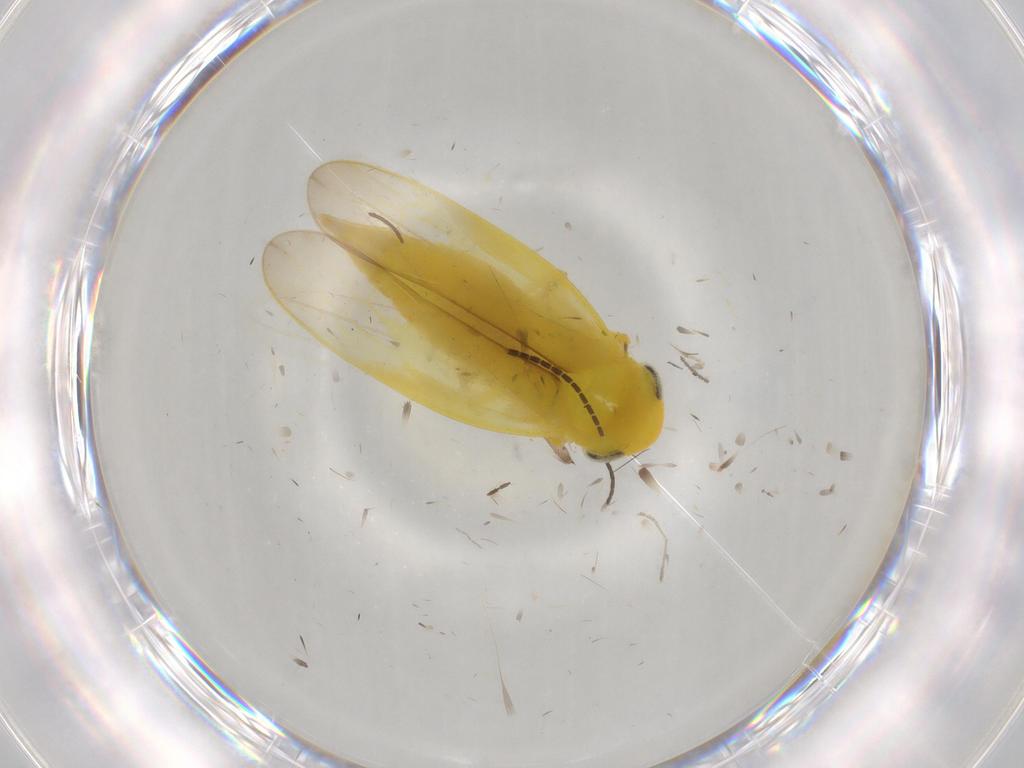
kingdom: Animalia
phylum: Arthropoda
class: Insecta
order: Hemiptera
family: Cicadellidae
